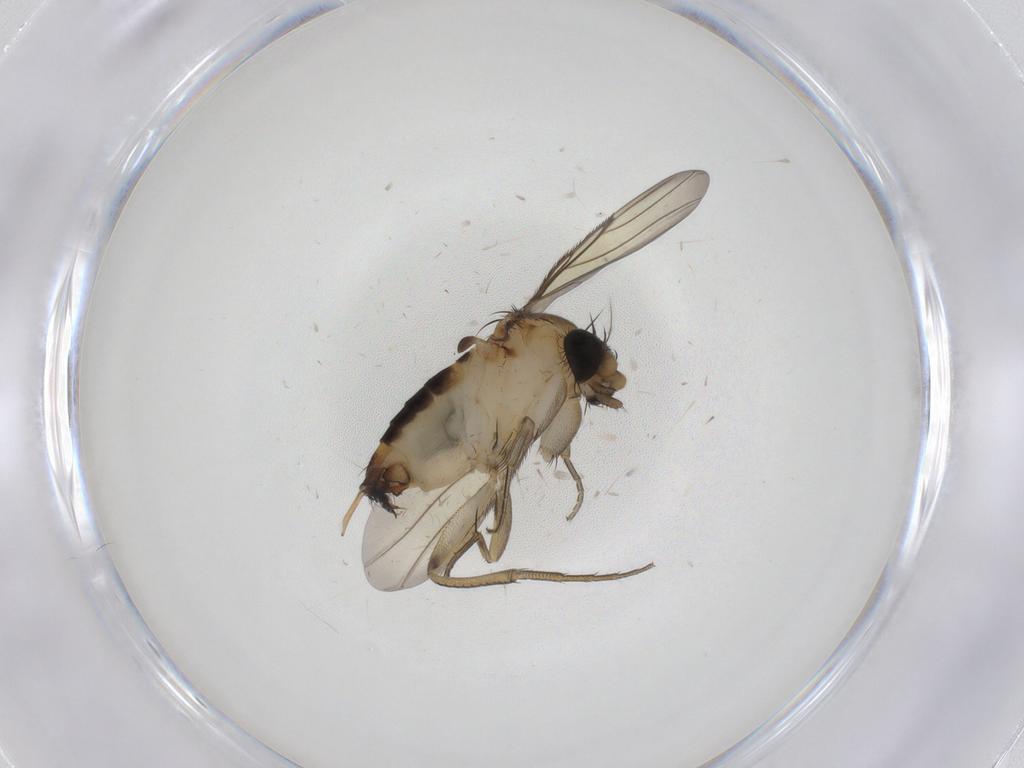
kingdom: Animalia
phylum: Arthropoda
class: Insecta
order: Diptera
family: Phoridae
